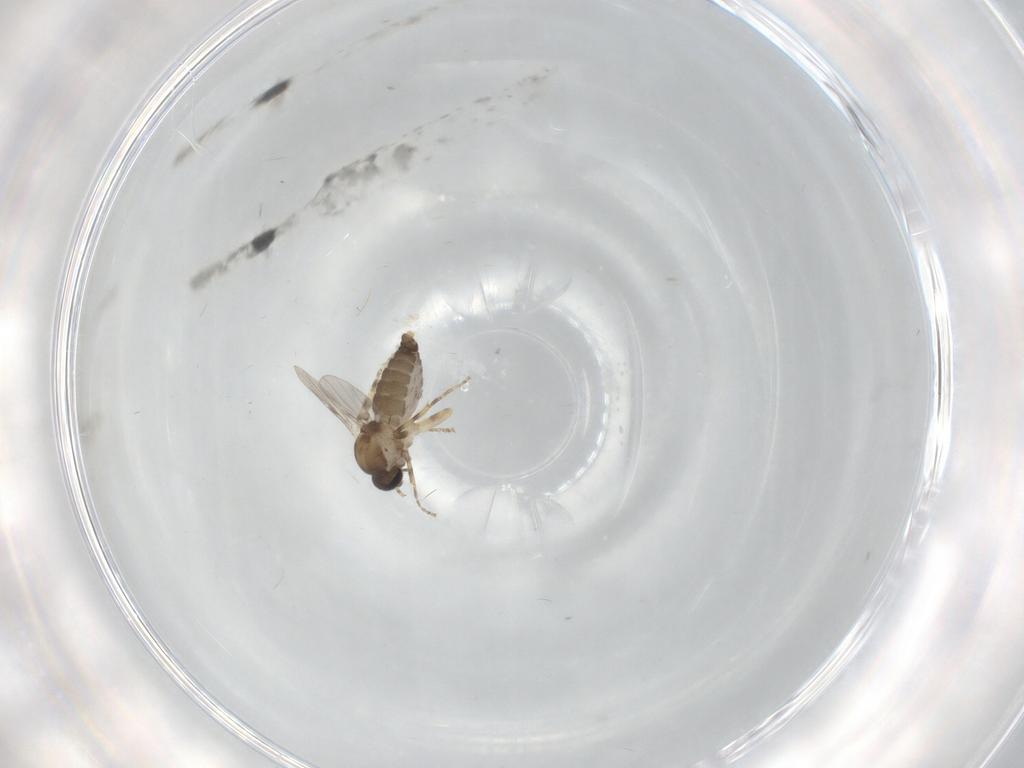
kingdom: Animalia
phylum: Arthropoda
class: Insecta
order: Diptera
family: Ceratopogonidae
